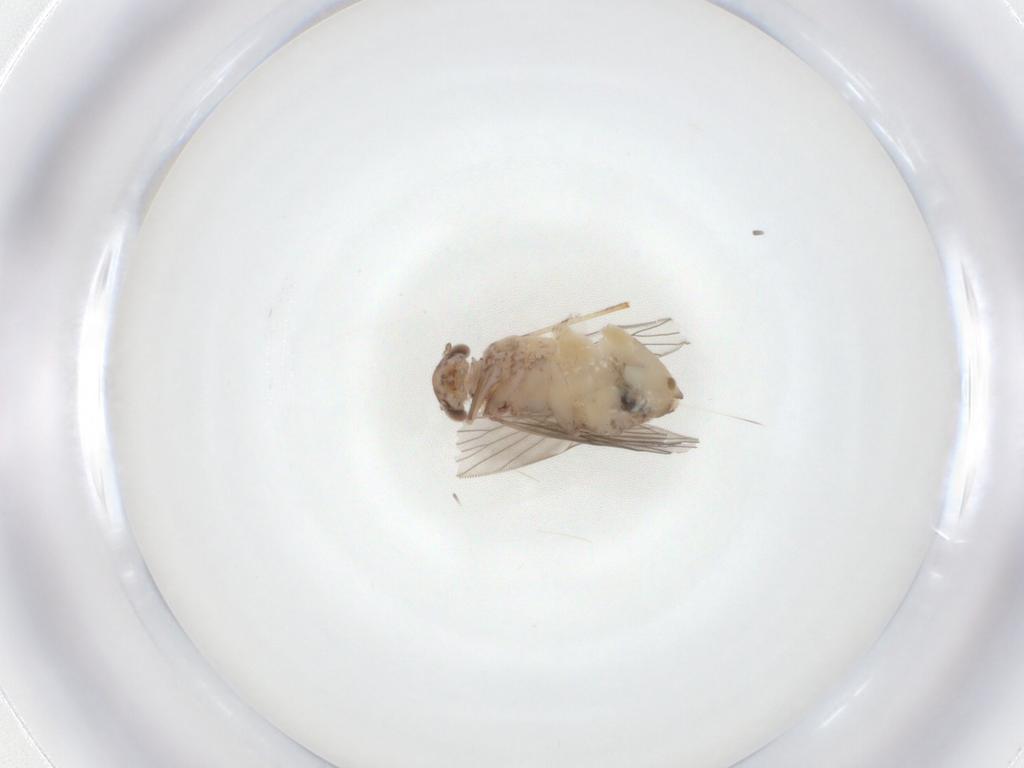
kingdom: Animalia
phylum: Arthropoda
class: Insecta
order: Psocodea
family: Lepidopsocidae
